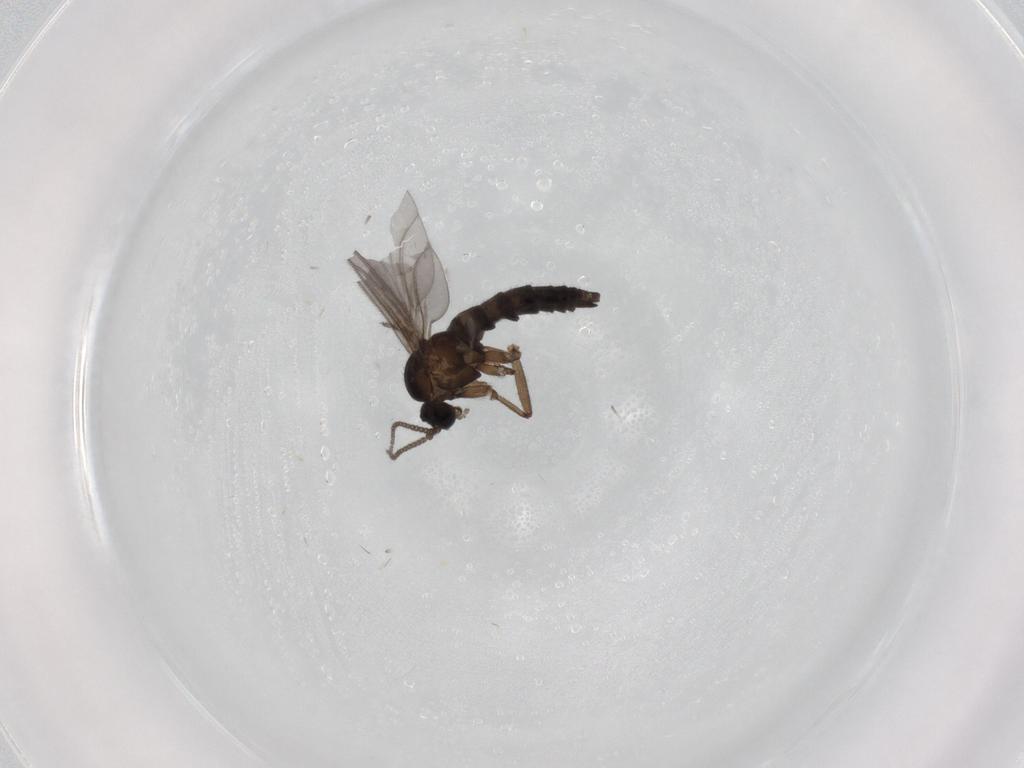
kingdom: Animalia
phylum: Arthropoda
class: Insecta
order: Diptera
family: Sciaridae
